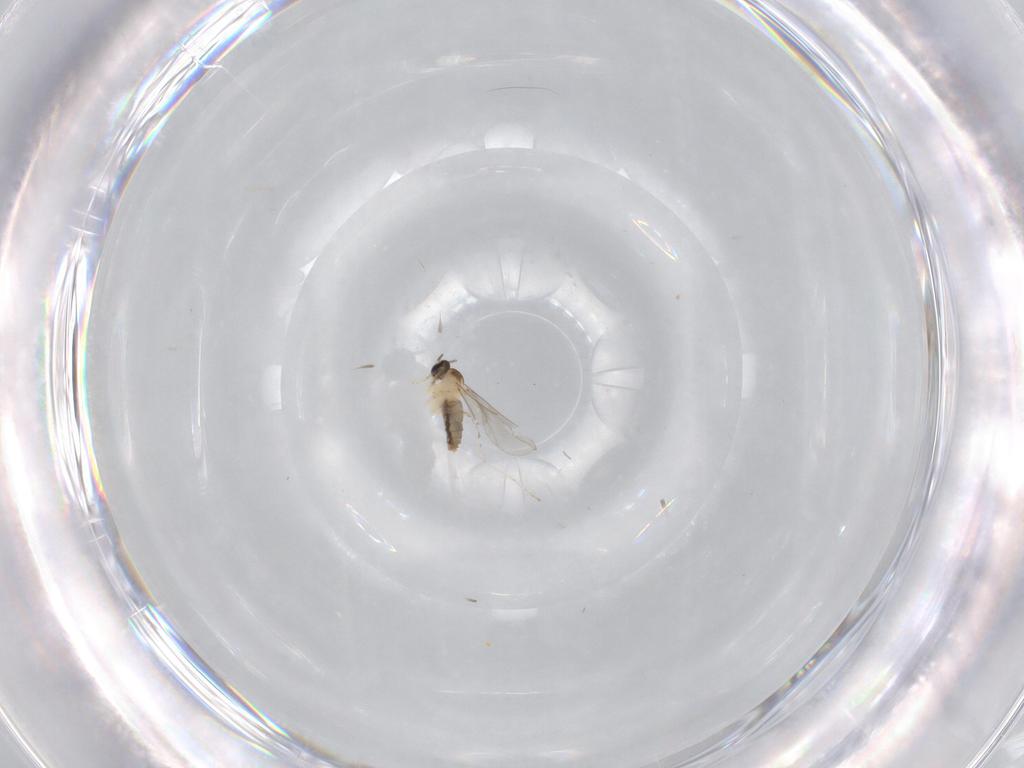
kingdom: Animalia
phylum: Arthropoda
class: Insecta
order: Diptera
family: Cecidomyiidae
